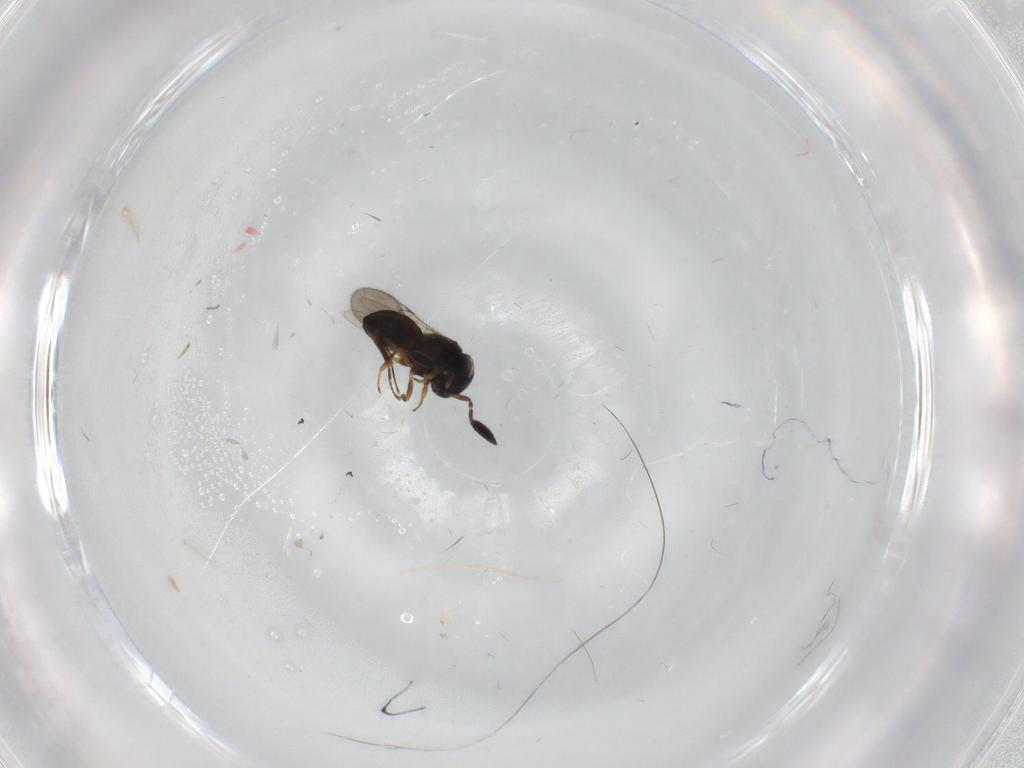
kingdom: Animalia
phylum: Arthropoda
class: Insecta
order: Hymenoptera
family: Scelionidae
